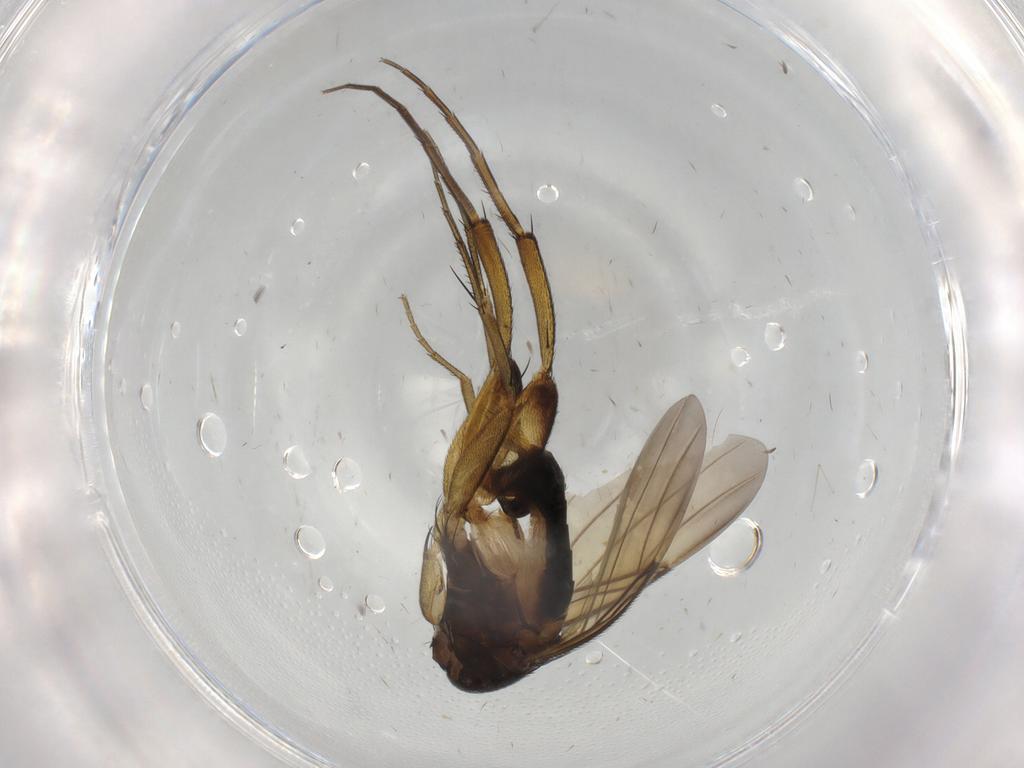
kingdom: Animalia
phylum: Arthropoda
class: Insecta
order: Diptera
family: Phoridae
